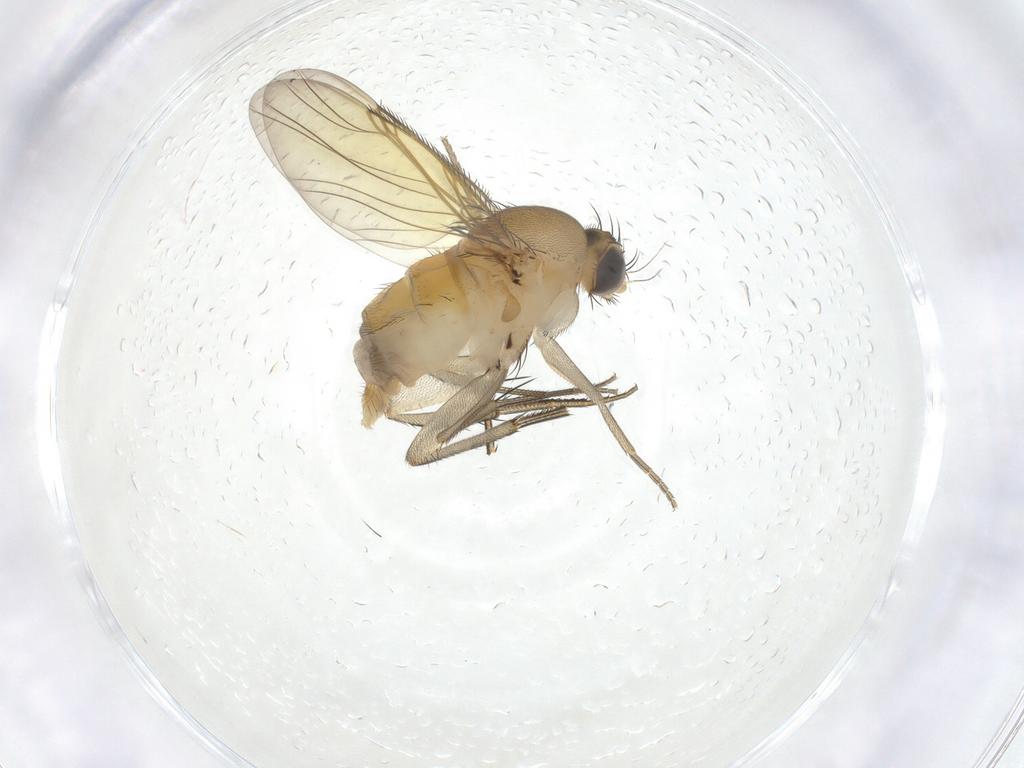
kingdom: Animalia
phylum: Arthropoda
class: Insecta
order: Diptera
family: Phoridae
